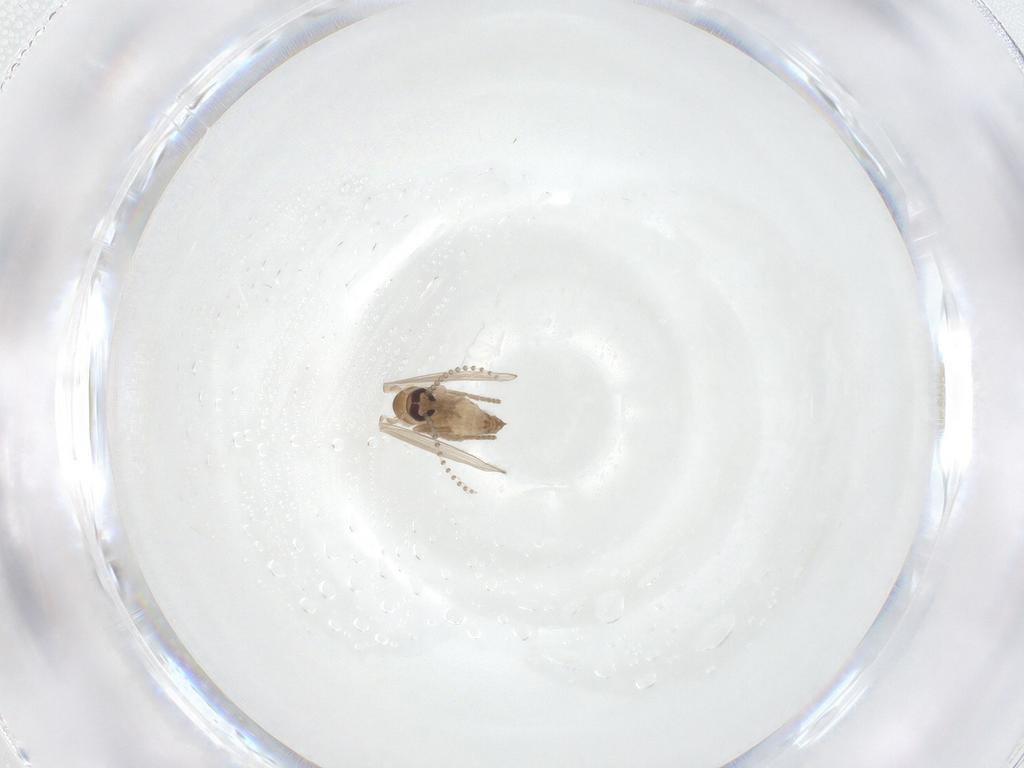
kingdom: Animalia
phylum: Arthropoda
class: Insecta
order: Diptera
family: Psychodidae
